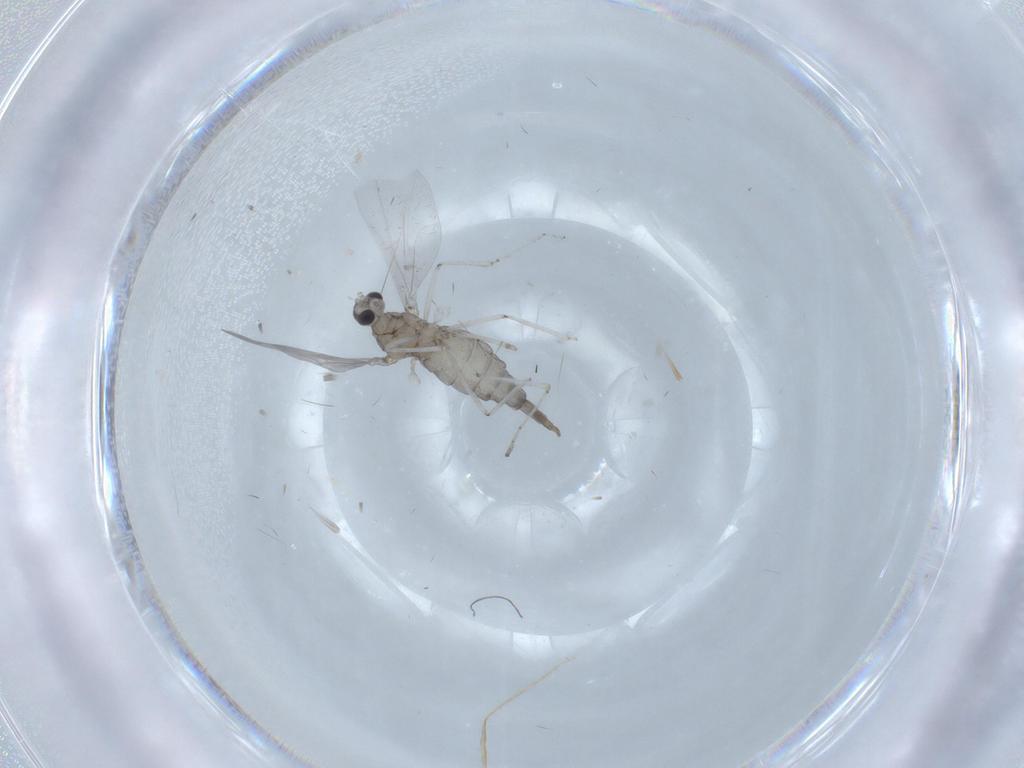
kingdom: Animalia
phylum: Arthropoda
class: Insecta
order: Diptera
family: Cecidomyiidae
